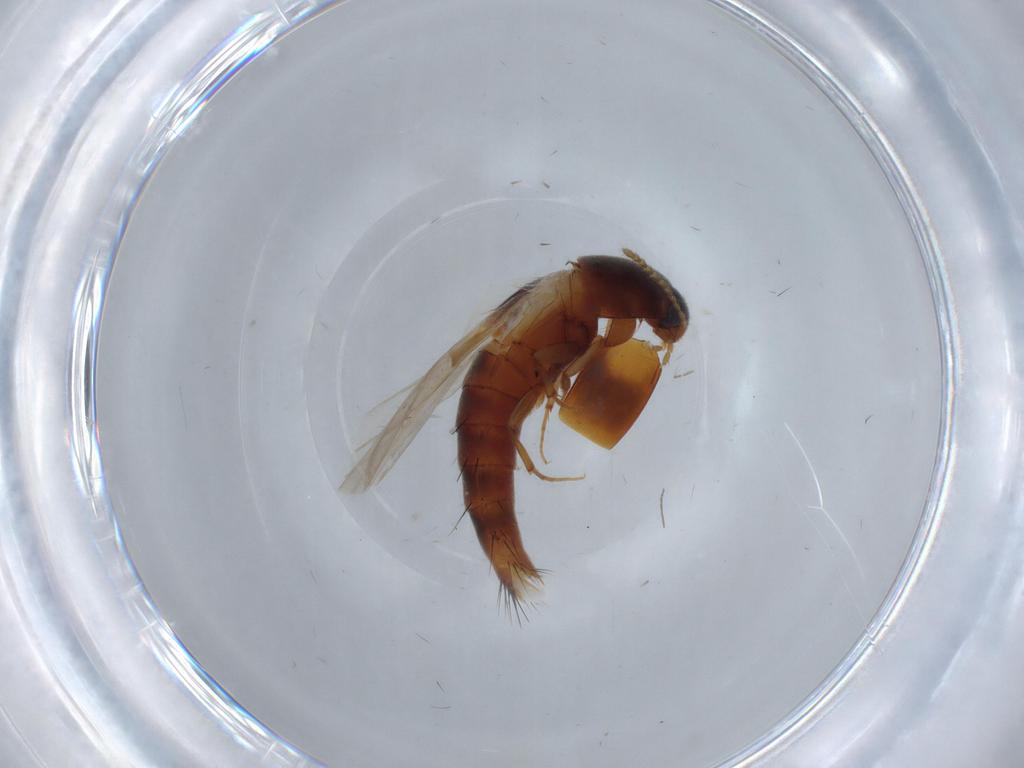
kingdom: Animalia
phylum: Arthropoda
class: Insecta
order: Coleoptera
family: Staphylinidae
